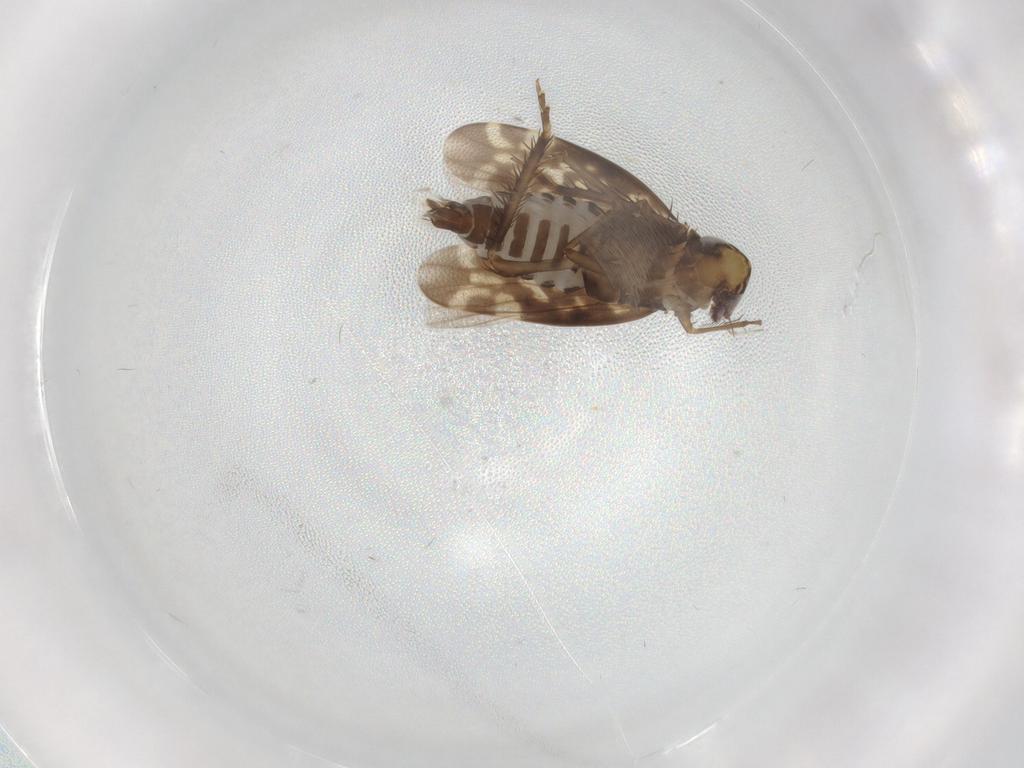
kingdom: Animalia
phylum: Arthropoda
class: Insecta
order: Hemiptera
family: Cicadellidae
